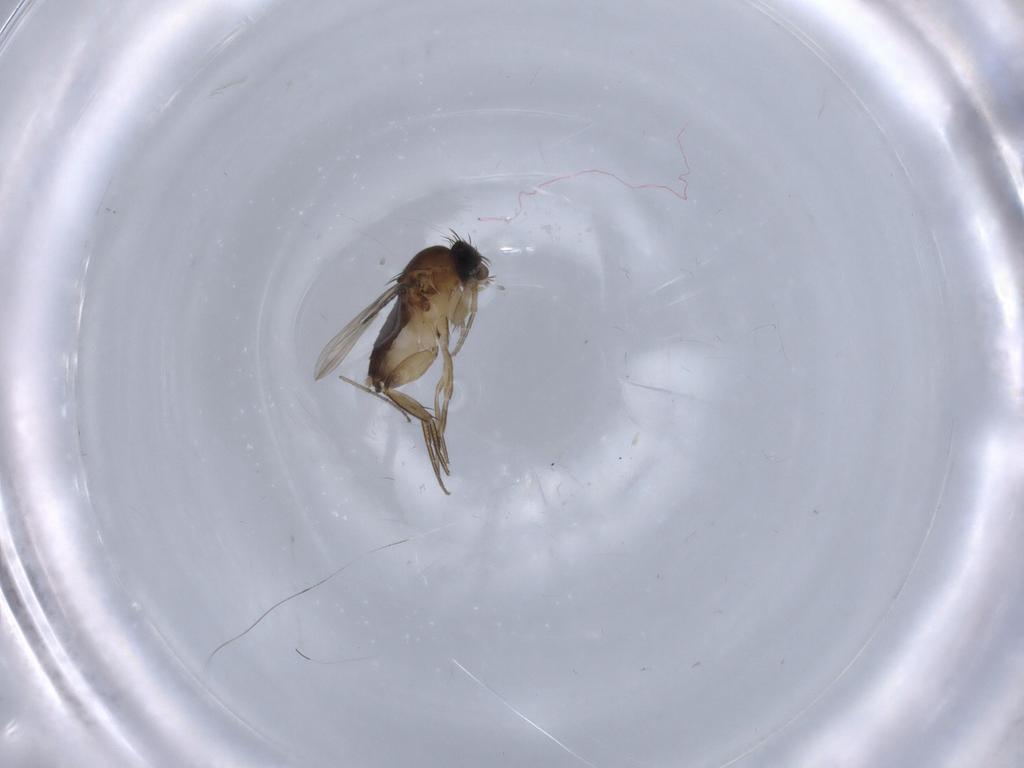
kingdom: Animalia
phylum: Arthropoda
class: Insecta
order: Diptera
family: Phoridae
